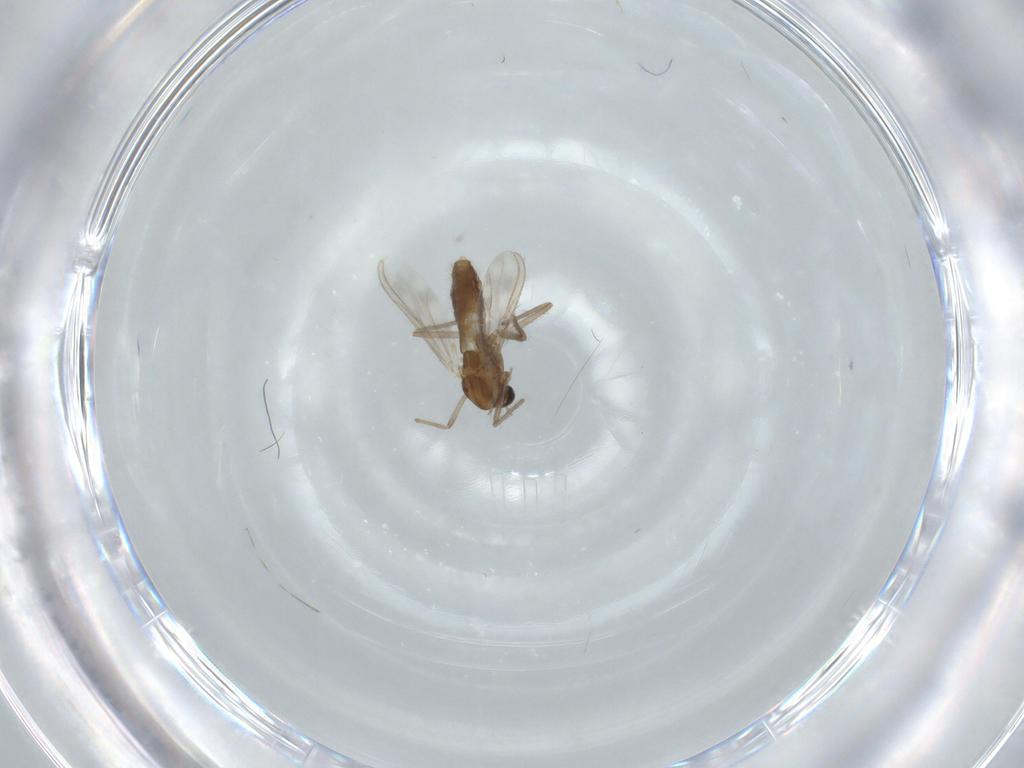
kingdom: Animalia
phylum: Arthropoda
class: Insecta
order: Diptera
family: Chironomidae
